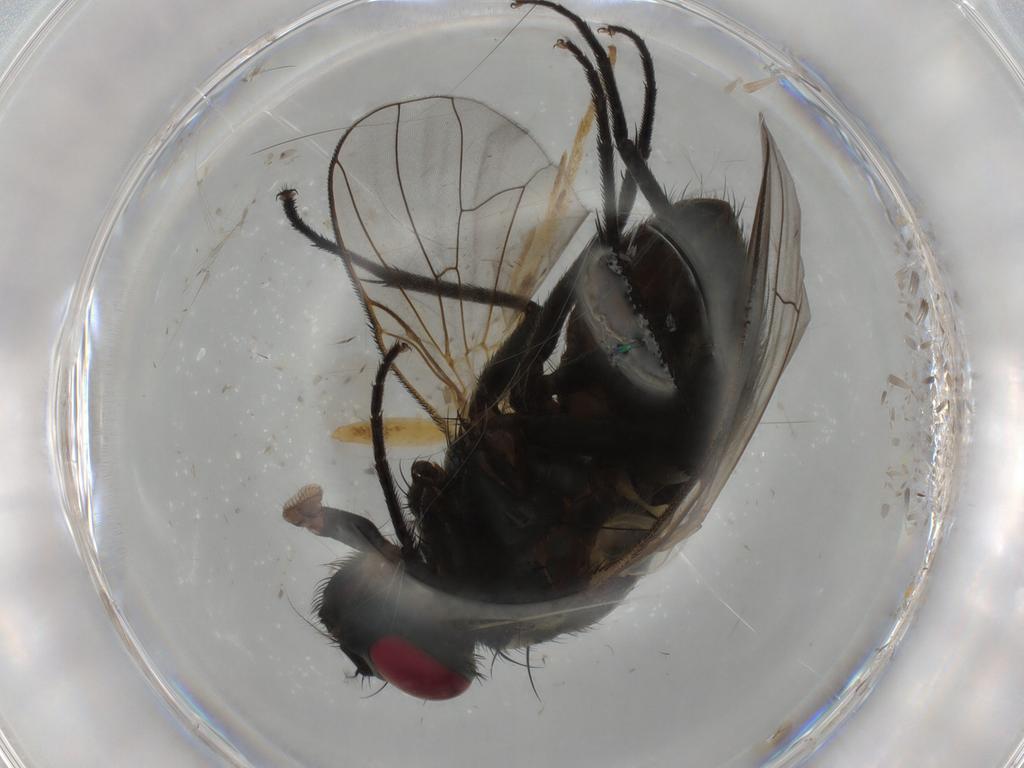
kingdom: Animalia
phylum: Arthropoda
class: Insecta
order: Diptera
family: Muscidae
